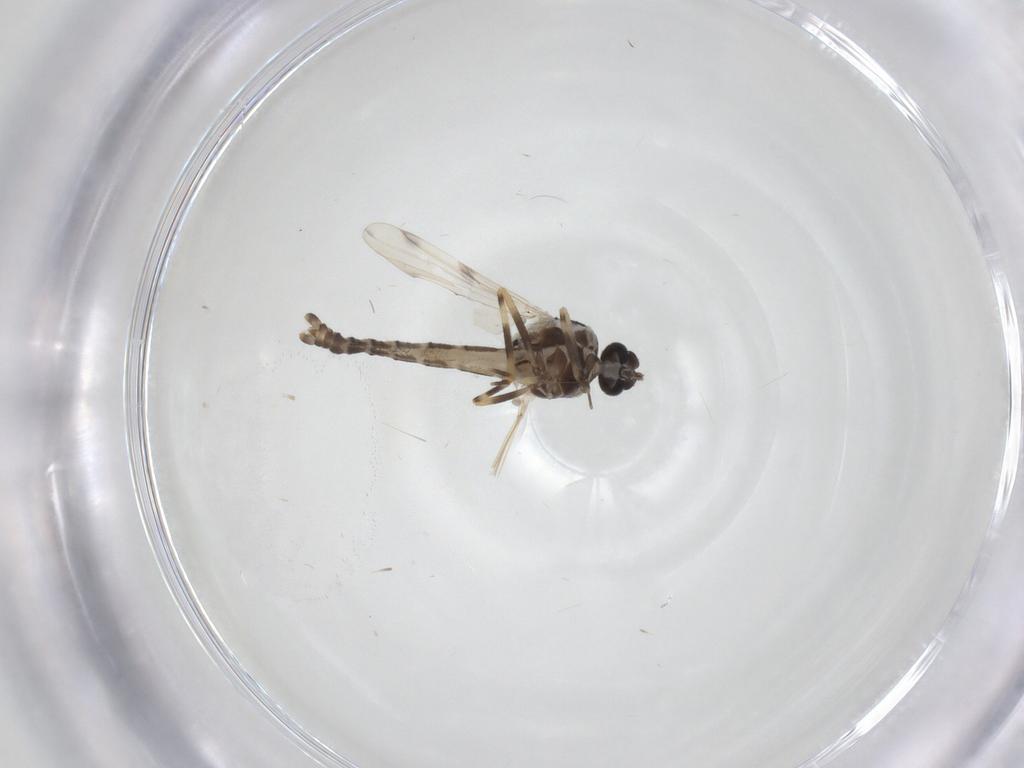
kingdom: Animalia
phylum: Arthropoda
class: Insecta
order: Diptera
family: Ceratopogonidae
